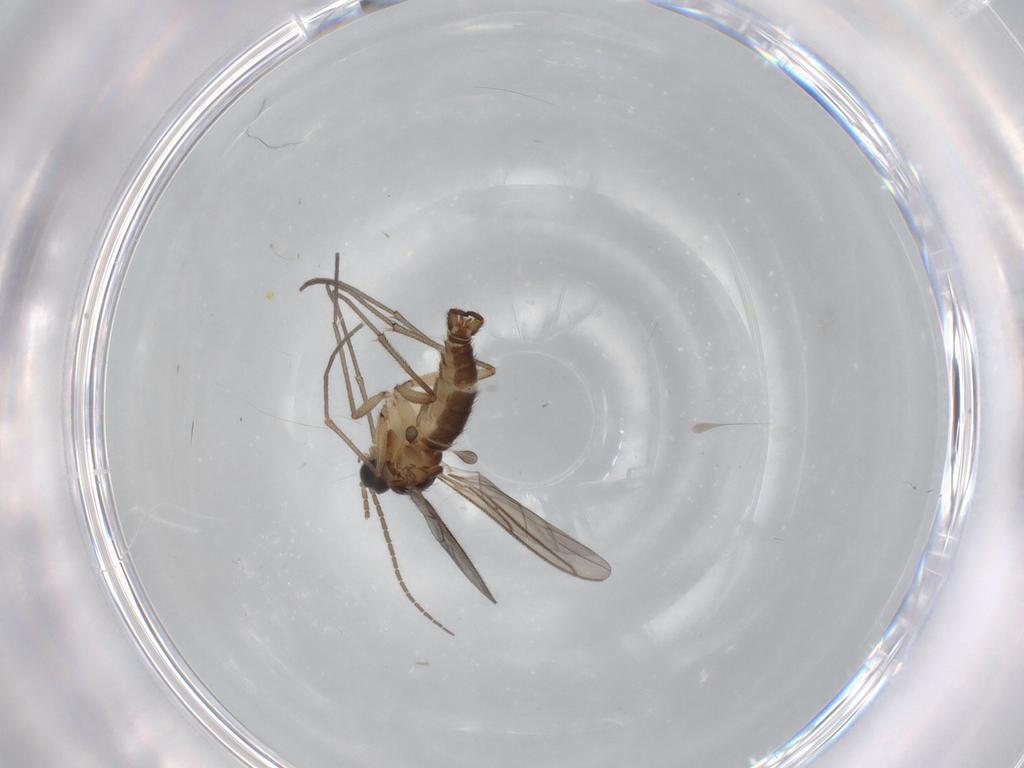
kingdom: Animalia
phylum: Arthropoda
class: Insecta
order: Diptera
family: Sciaridae
